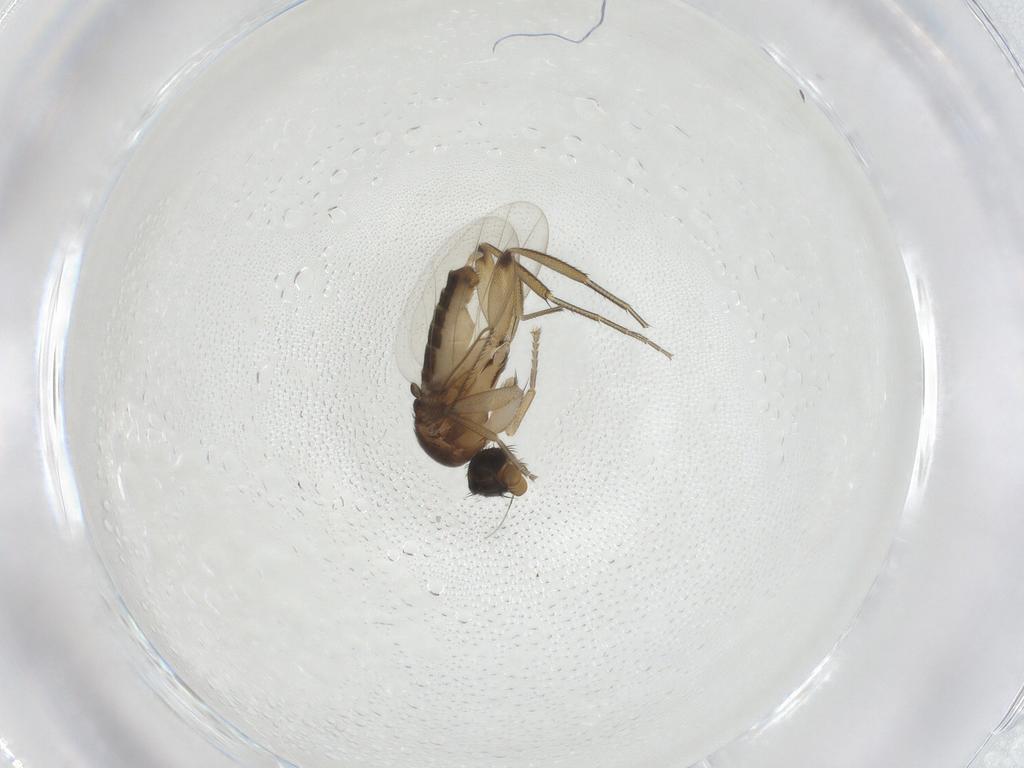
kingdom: Animalia
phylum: Arthropoda
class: Insecta
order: Diptera
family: Phoridae
